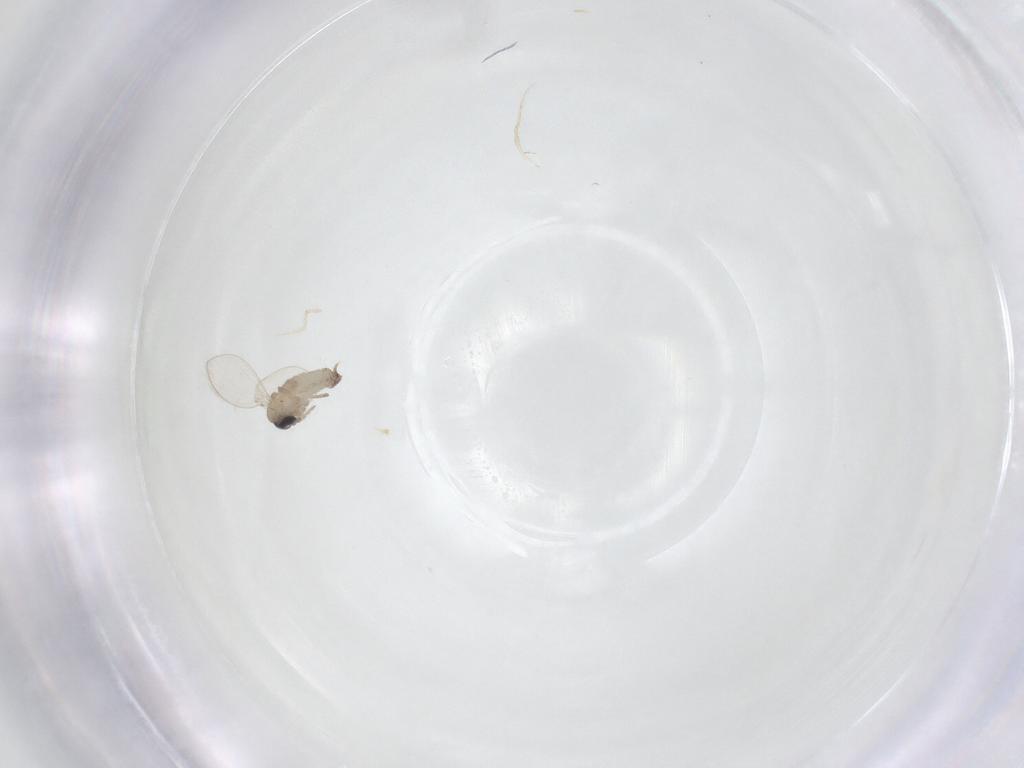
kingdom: Animalia
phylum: Arthropoda
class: Insecta
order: Diptera
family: Psychodidae
